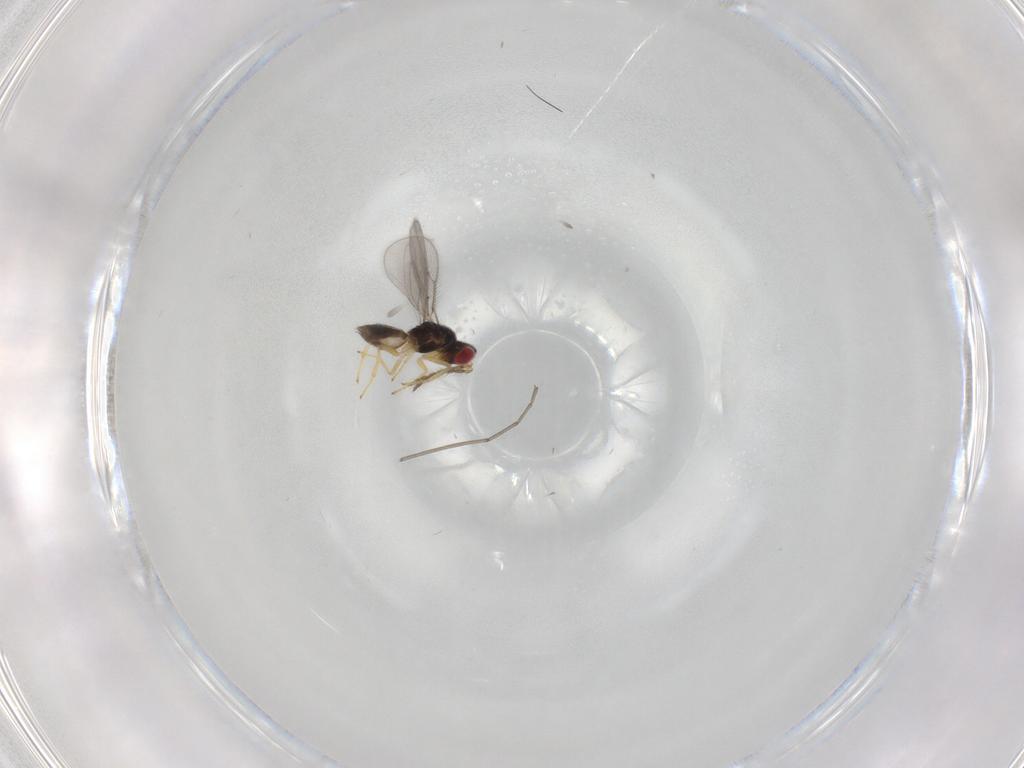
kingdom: Animalia
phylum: Arthropoda
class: Insecta
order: Hymenoptera
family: Eulophidae
